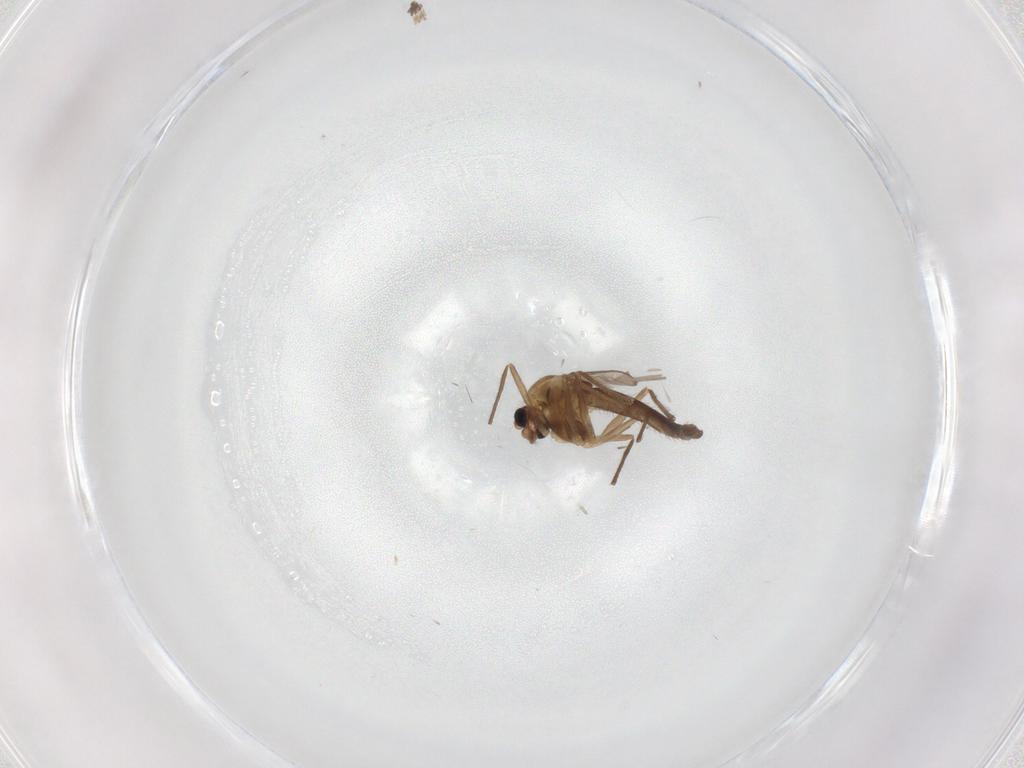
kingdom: Animalia
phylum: Arthropoda
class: Insecta
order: Diptera
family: Chironomidae
